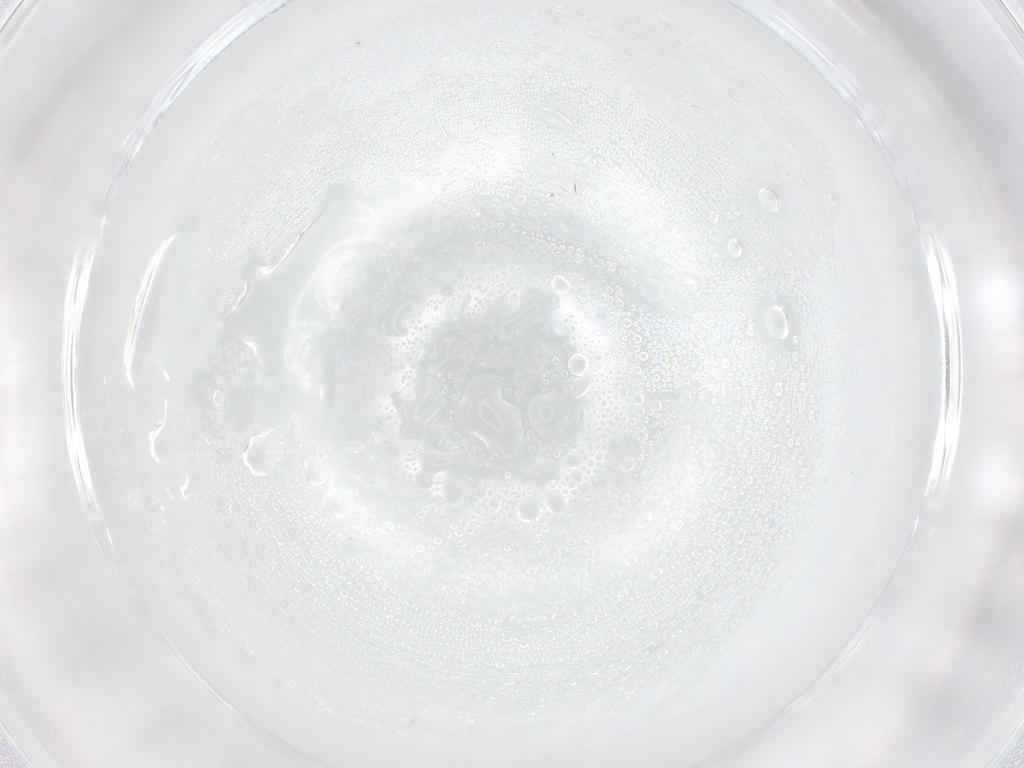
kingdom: Animalia
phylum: Arthropoda
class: Insecta
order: Diptera
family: Cecidomyiidae
